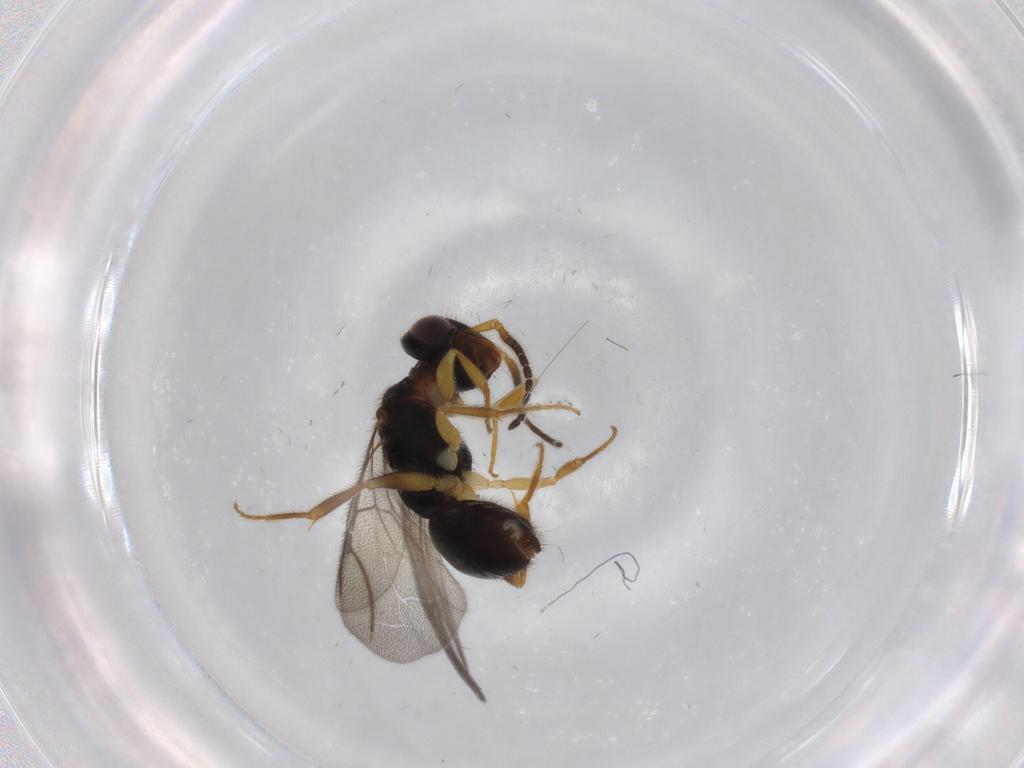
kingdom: Animalia
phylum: Arthropoda
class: Insecta
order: Hymenoptera
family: Bethylidae
